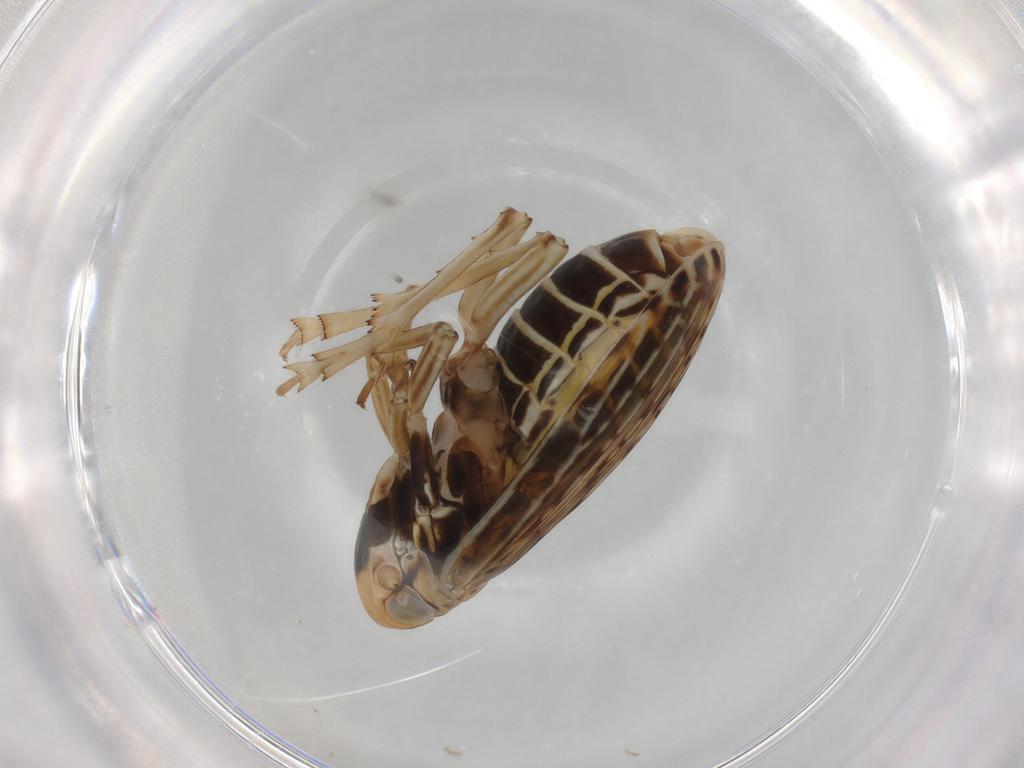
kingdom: Animalia
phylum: Arthropoda
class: Insecta
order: Hemiptera
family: Achilidae
